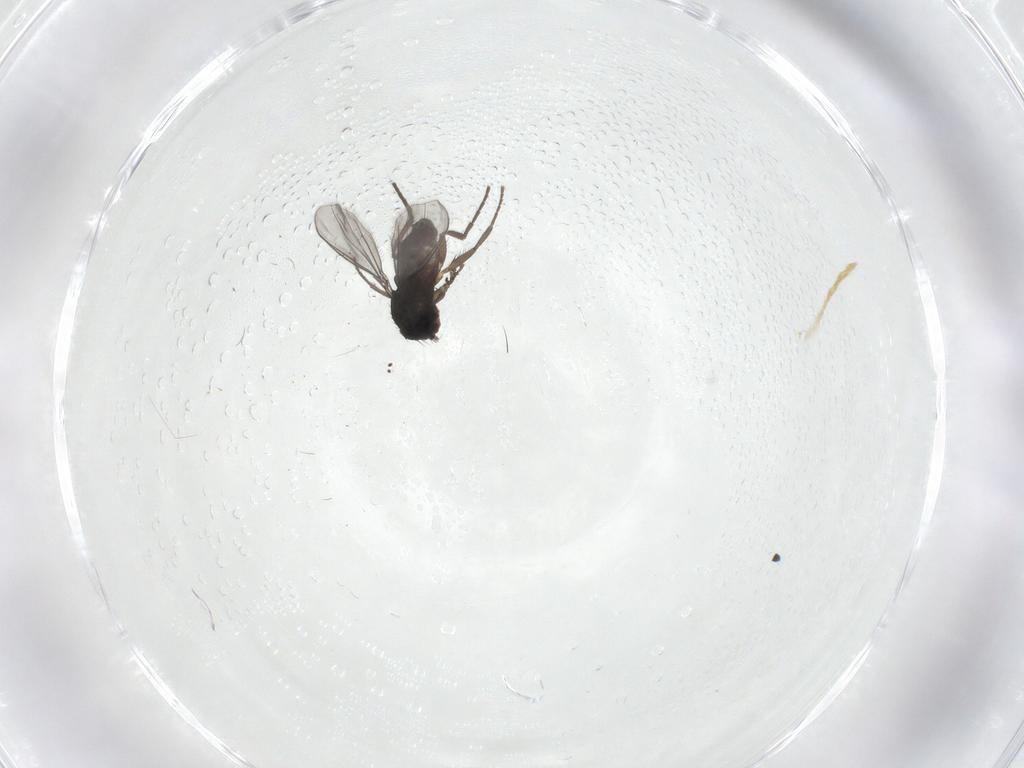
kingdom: Animalia
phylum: Arthropoda
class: Insecta
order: Diptera
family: Dolichopodidae
